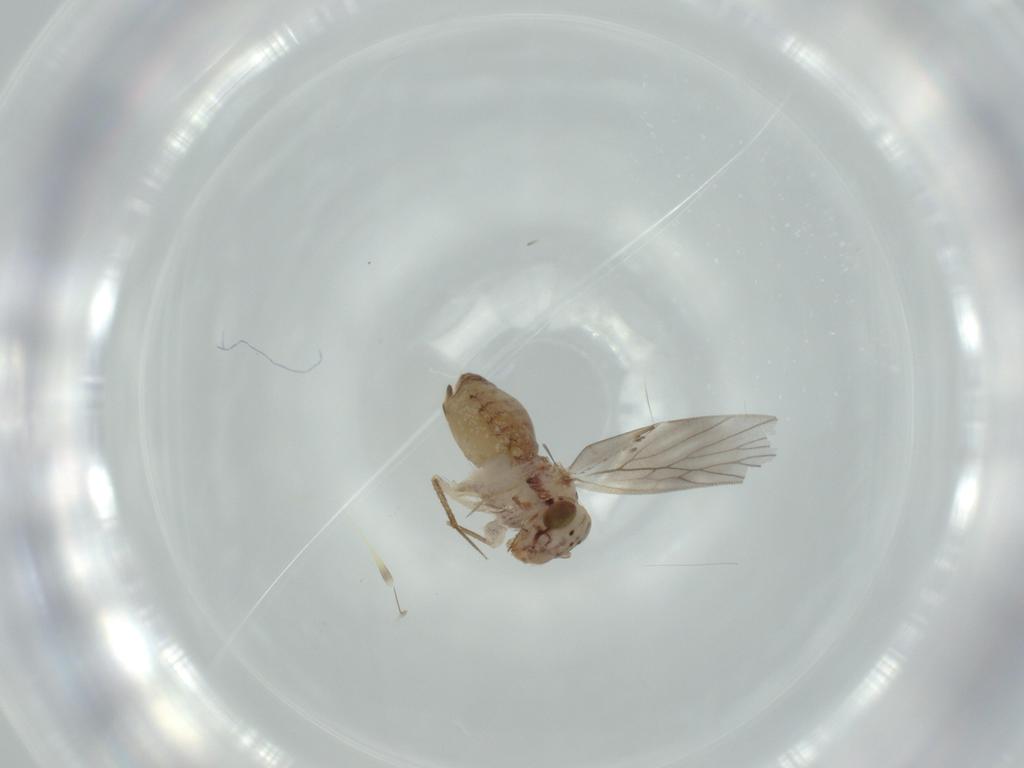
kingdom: Animalia
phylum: Arthropoda
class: Insecta
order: Psocodea
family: Lepidopsocidae
